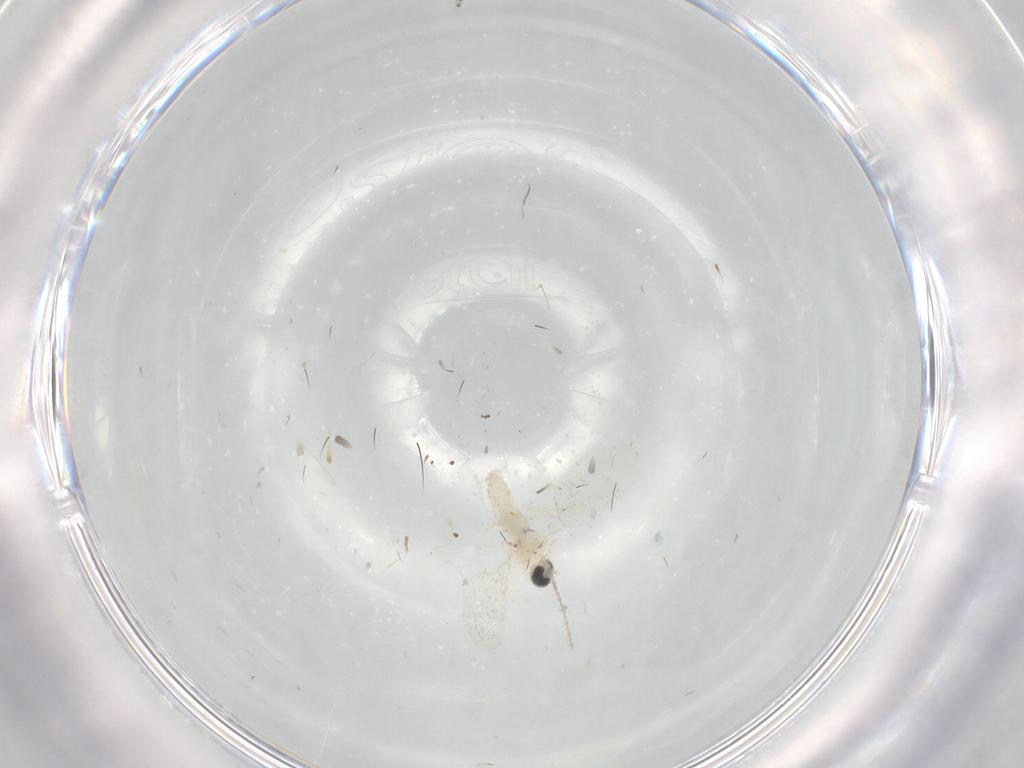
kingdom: Animalia
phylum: Arthropoda
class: Insecta
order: Diptera
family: Cecidomyiidae
